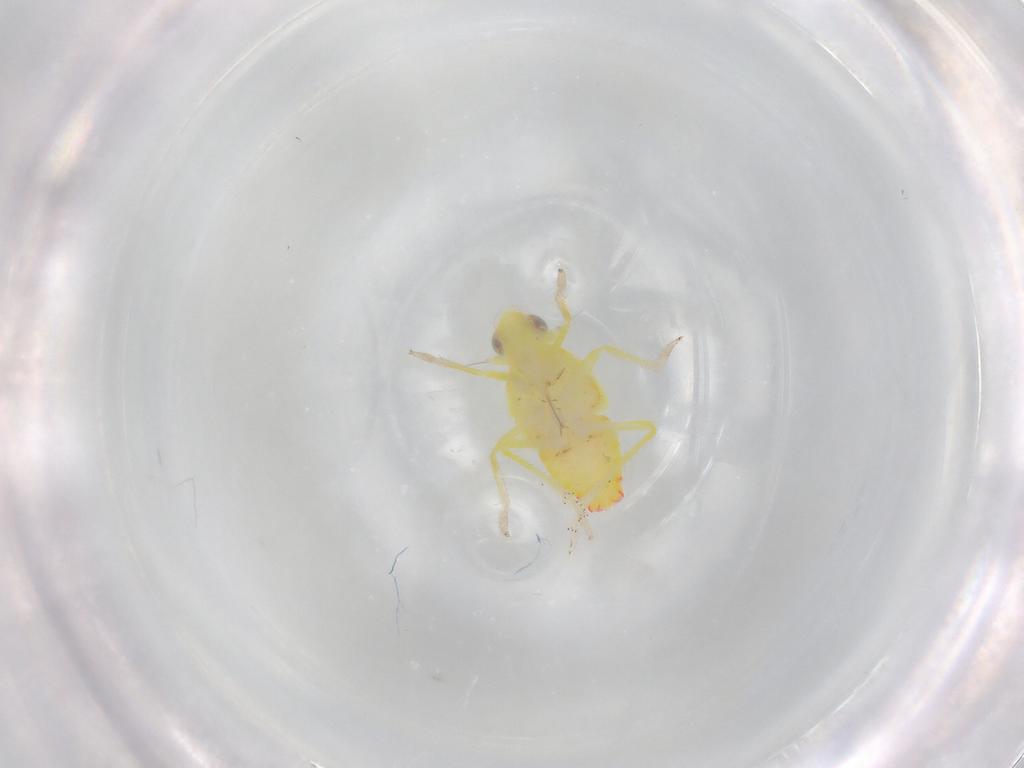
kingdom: Animalia
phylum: Arthropoda
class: Insecta
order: Hemiptera
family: Tropiduchidae
